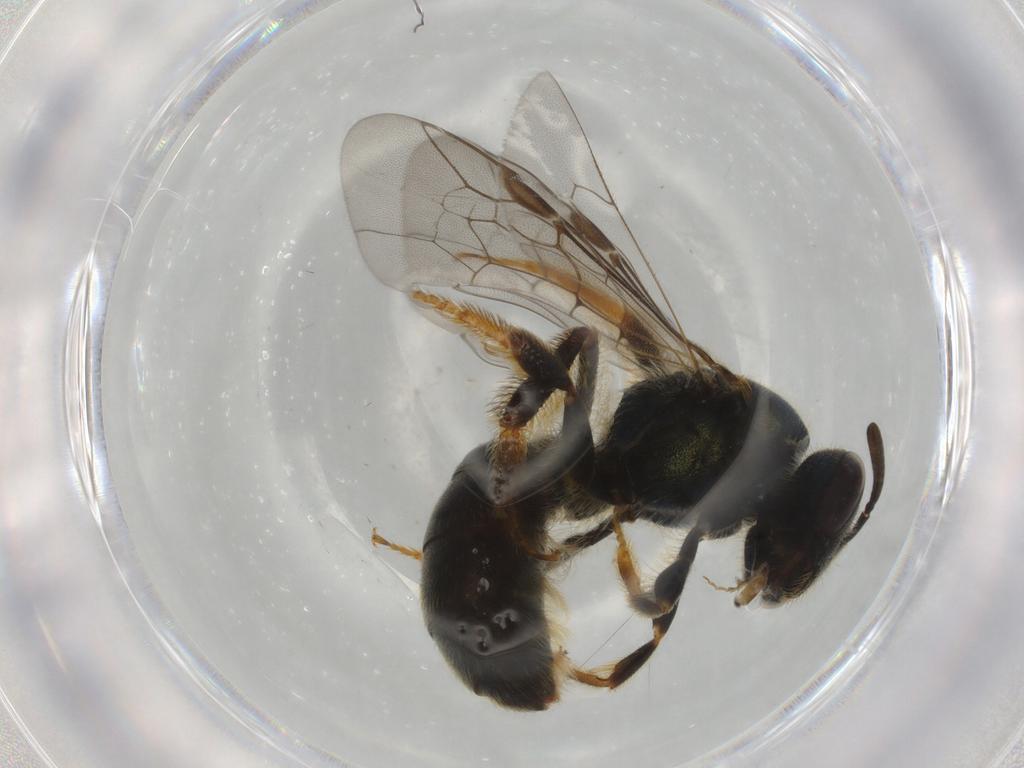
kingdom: Animalia
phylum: Arthropoda
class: Insecta
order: Hymenoptera
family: Halictidae
